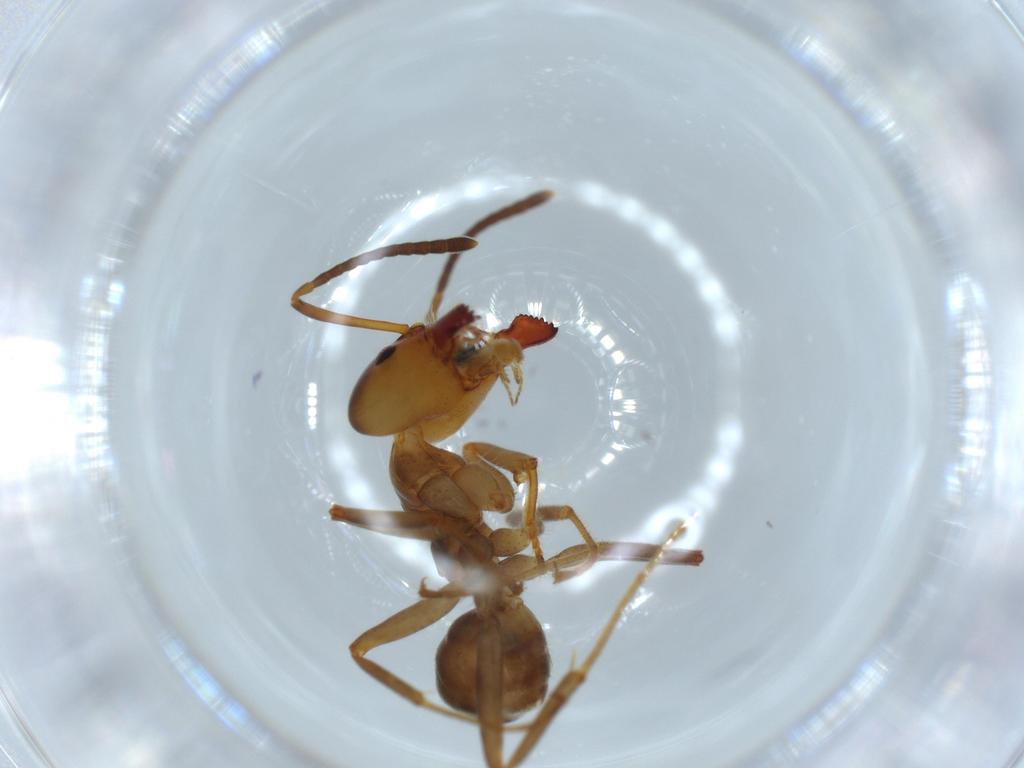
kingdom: Animalia
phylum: Arthropoda
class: Insecta
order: Hymenoptera
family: Formicidae
